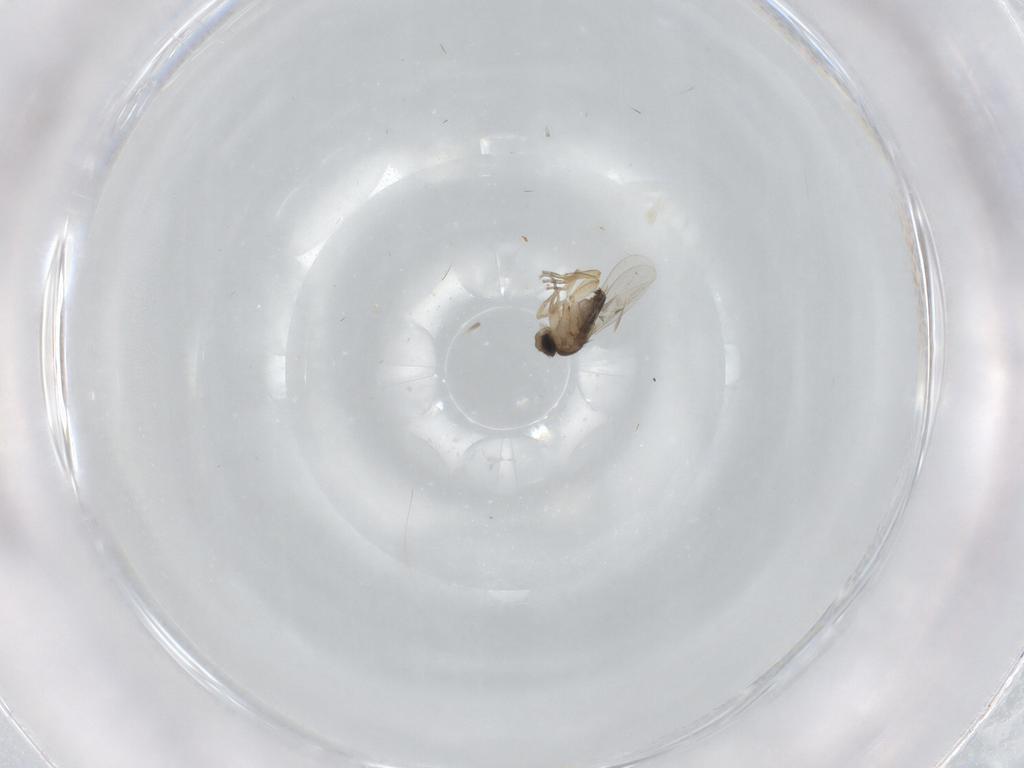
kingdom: Animalia
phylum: Arthropoda
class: Insecta
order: Diptera
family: Phoridae
